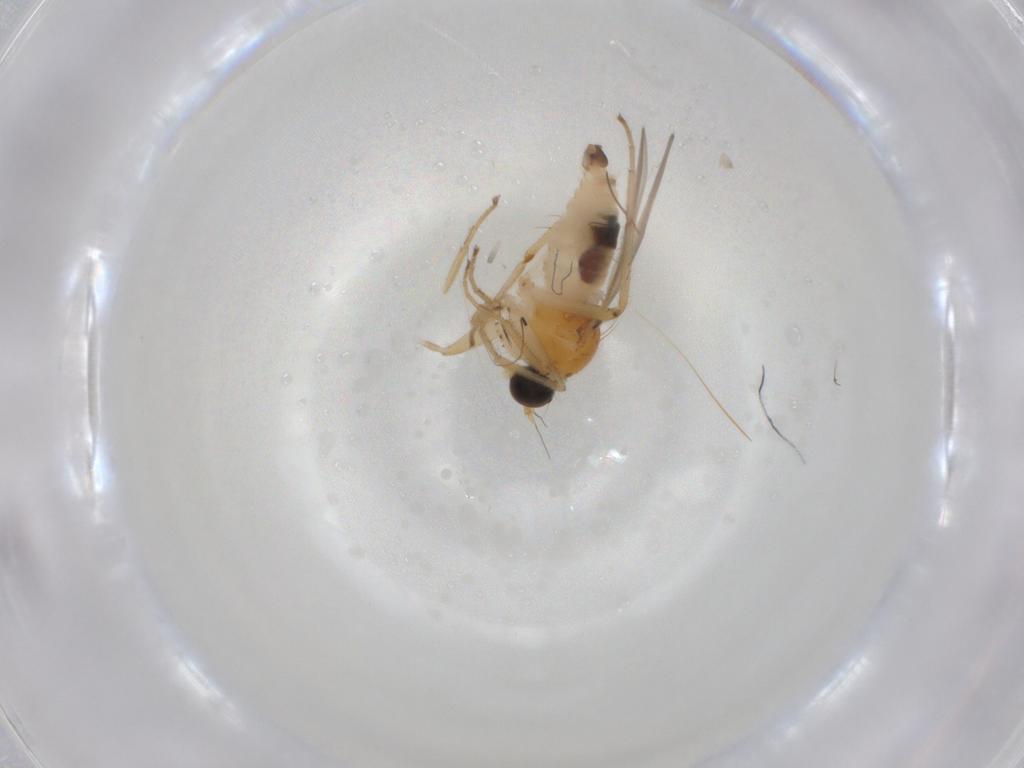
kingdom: Animalia
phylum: Arthropoda
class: Insecta
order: Diptera
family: Hybotidae
